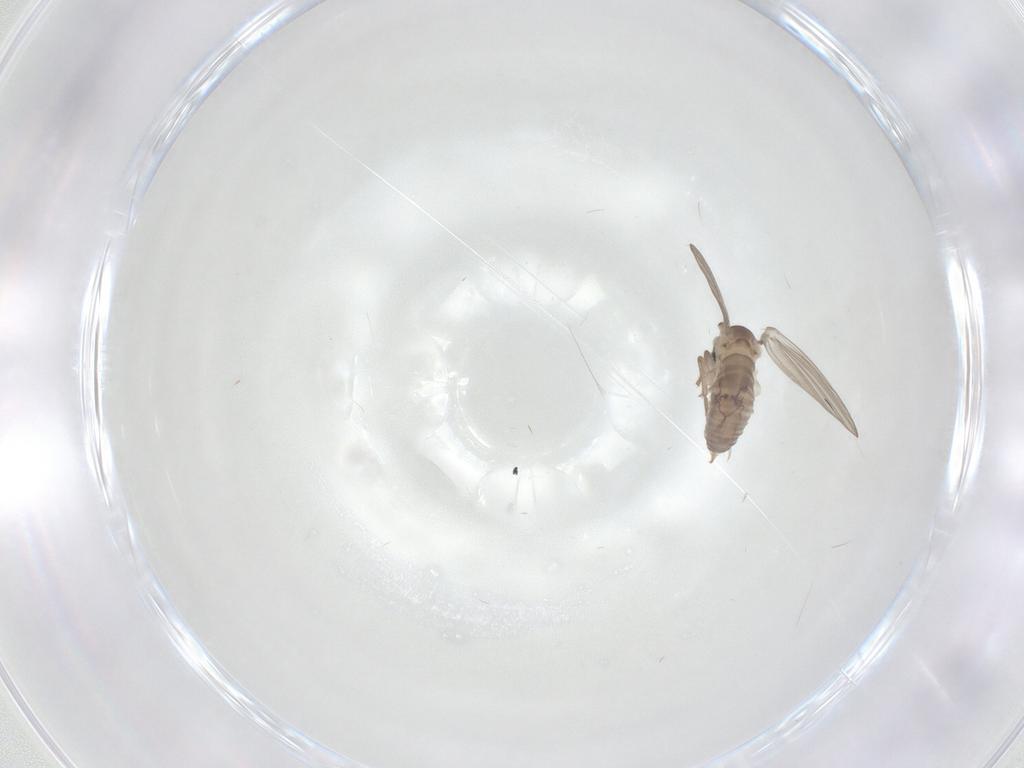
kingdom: Animalia
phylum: Arthropoda
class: Insecta
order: Diptera
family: Psychodidae
